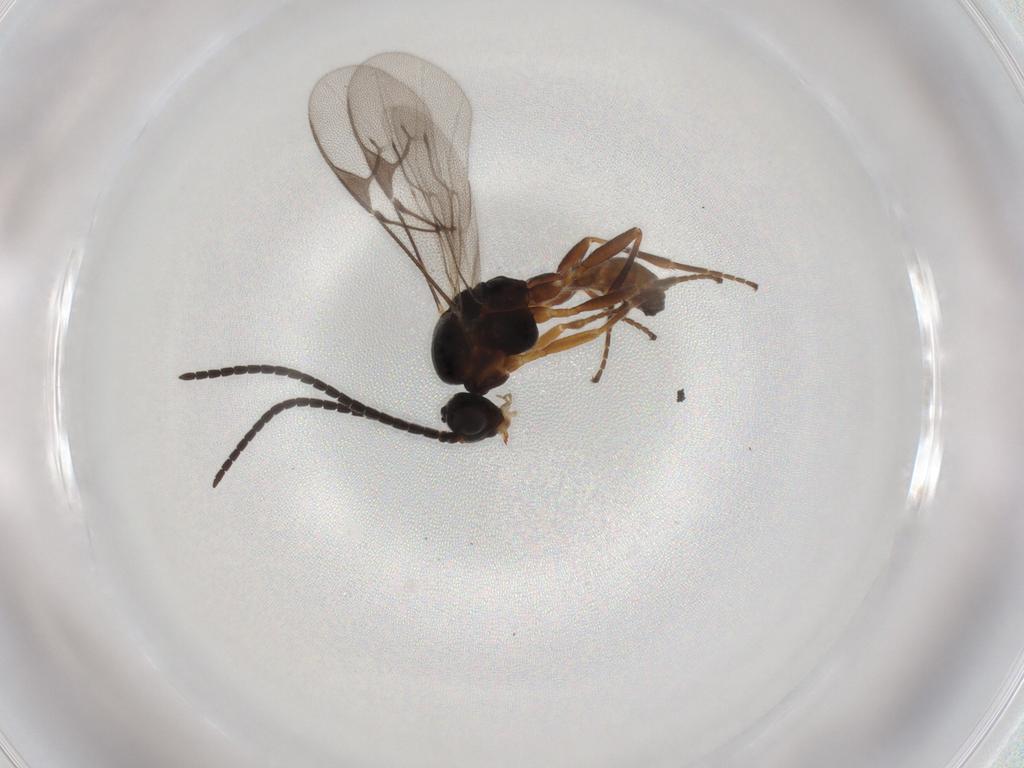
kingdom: Animalia
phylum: Arthropoda
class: Insecta
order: Hymenoptera
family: Braconidae
